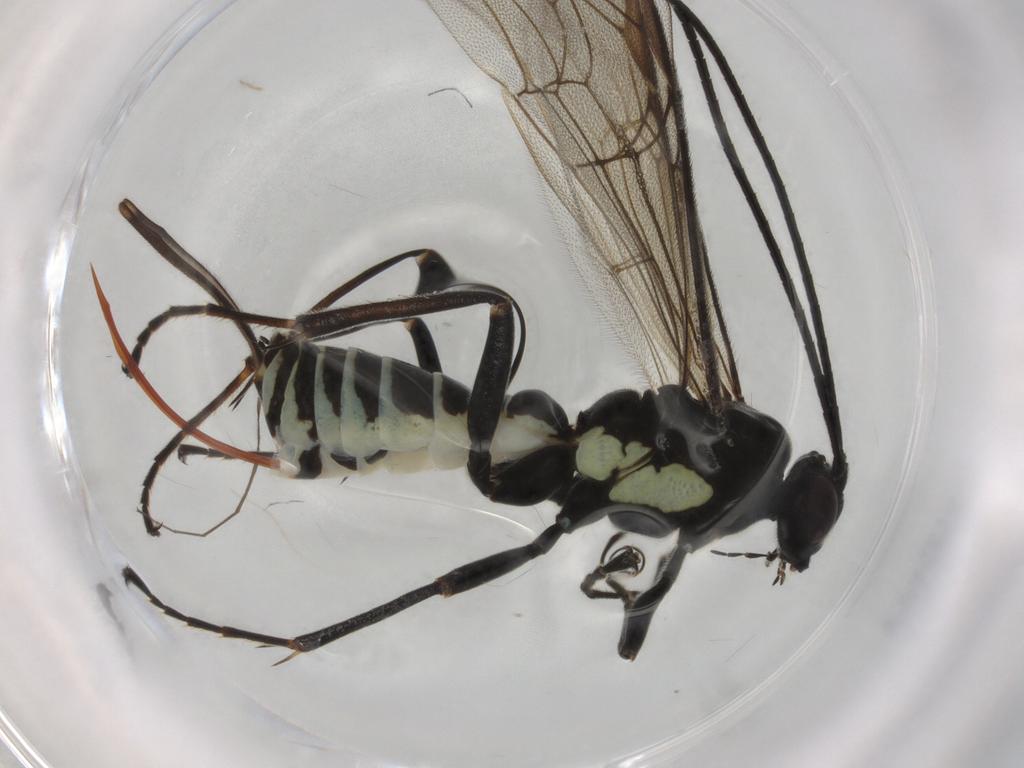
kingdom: Animalia
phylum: Arthropoda
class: Insecta
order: Hymenoptera
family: Ichneumonidae
